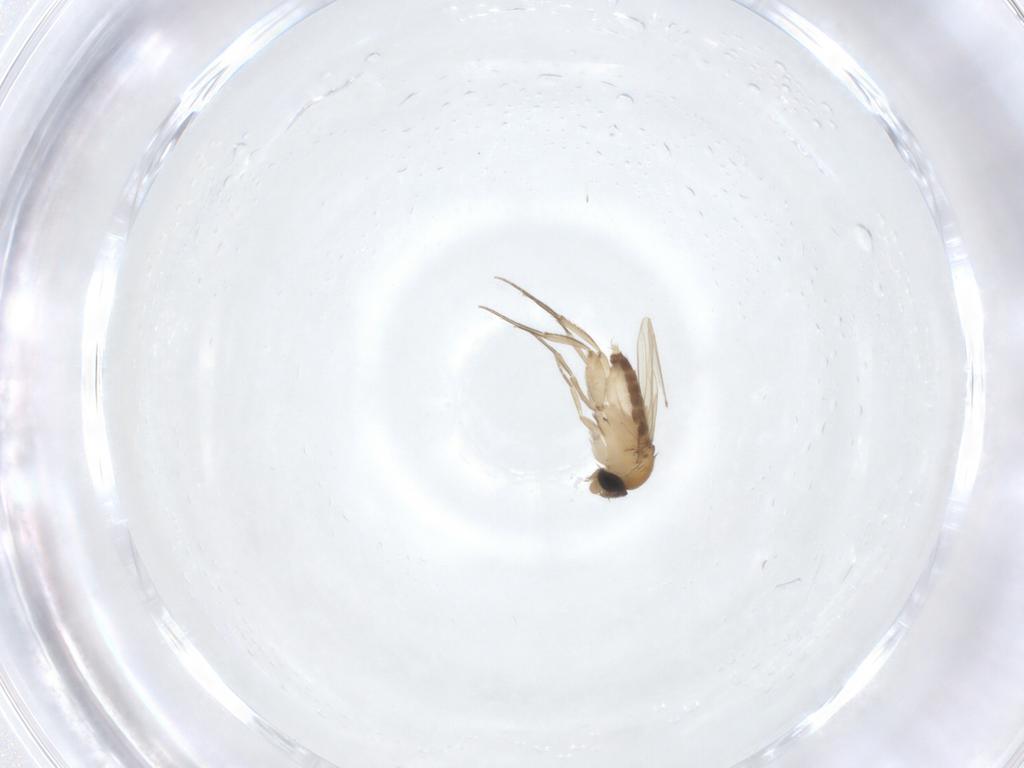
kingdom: Animalia
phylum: Arthropoda
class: Insecta
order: Diptera
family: Phoridae
